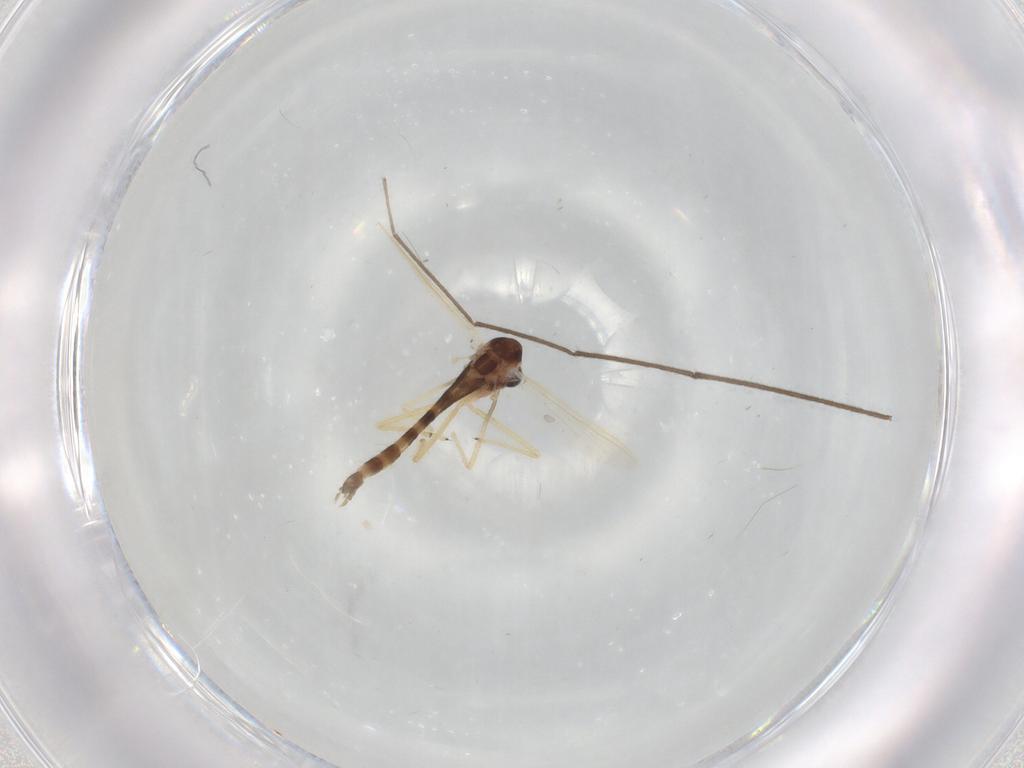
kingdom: Animalia
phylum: Arthropoda
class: Insecta
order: Diptera
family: Chironomidae
